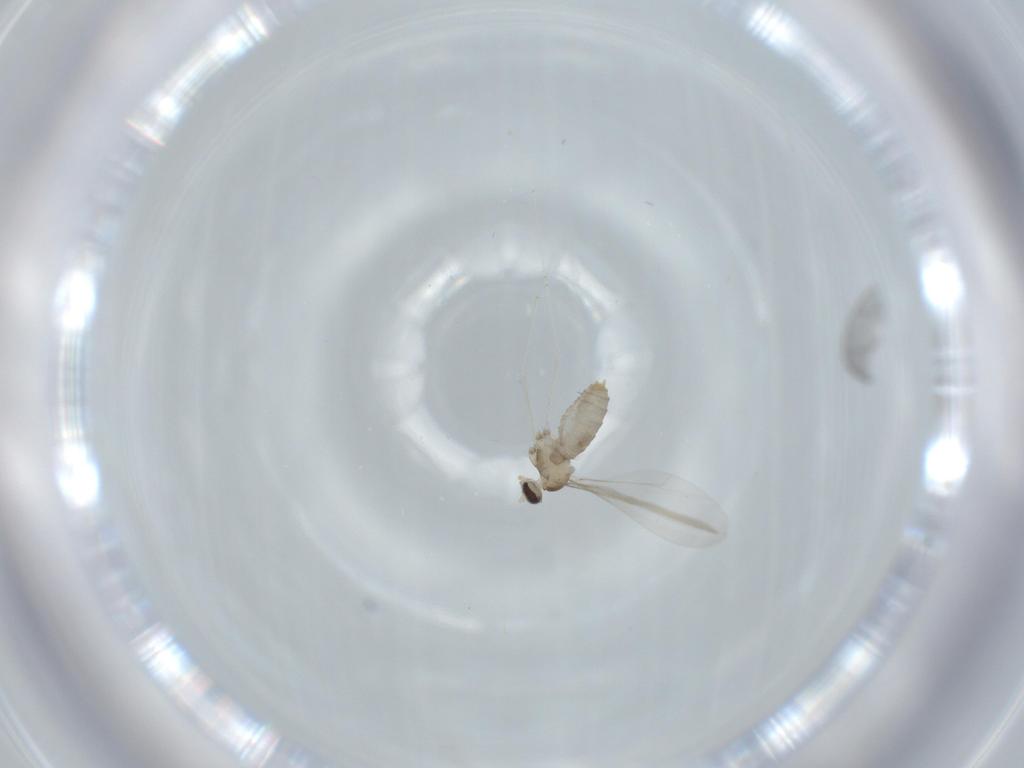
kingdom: Animalia
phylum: Arthropoda
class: Insecta
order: Diptera
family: Cecidomyiidae
